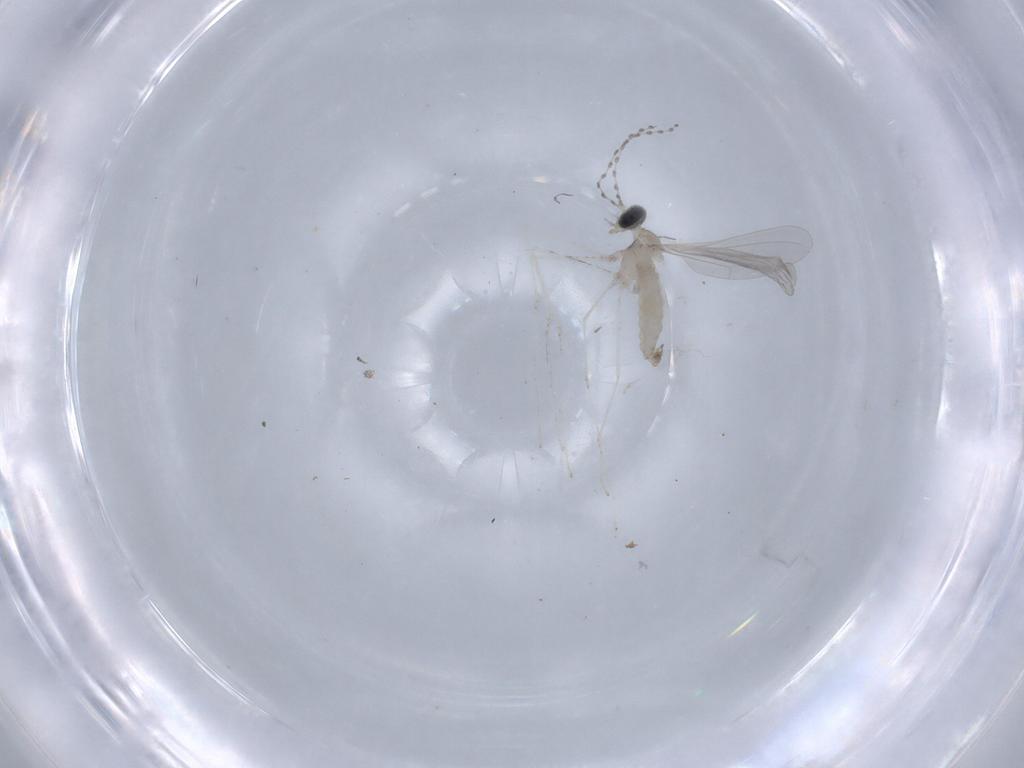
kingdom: Animalia
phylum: Arthropoda
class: Insecta
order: Diptera
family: Cecidomyiidae
